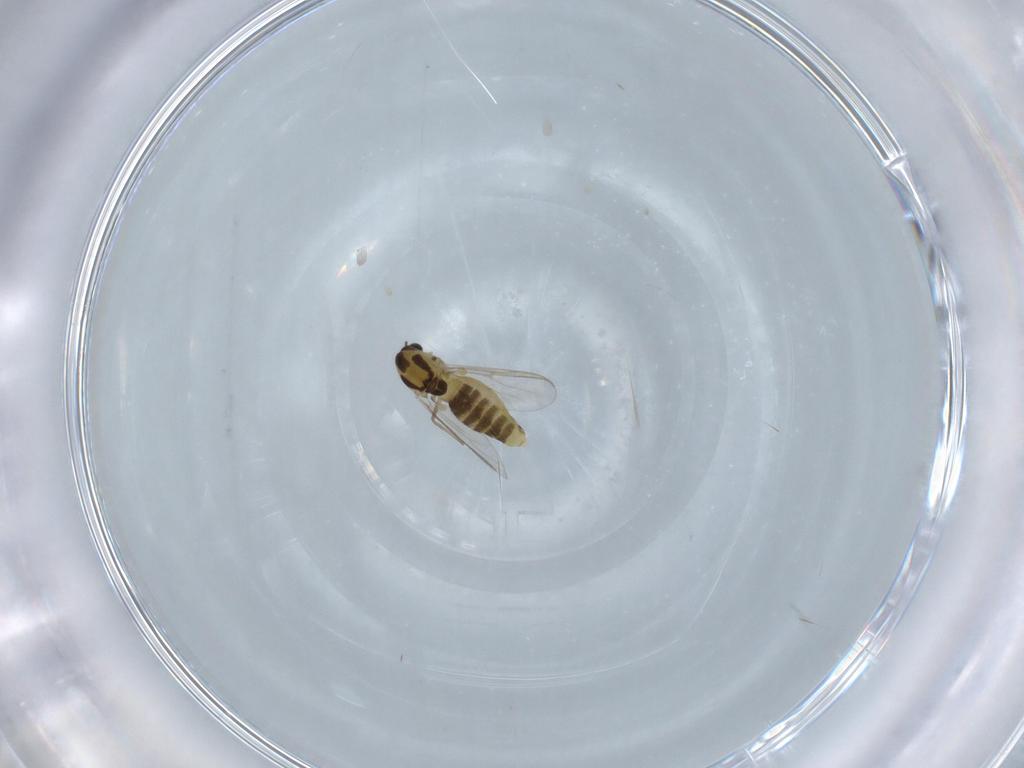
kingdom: Animalia
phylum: Arthropoda
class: Insecta
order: Diptera
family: Chironomidae
